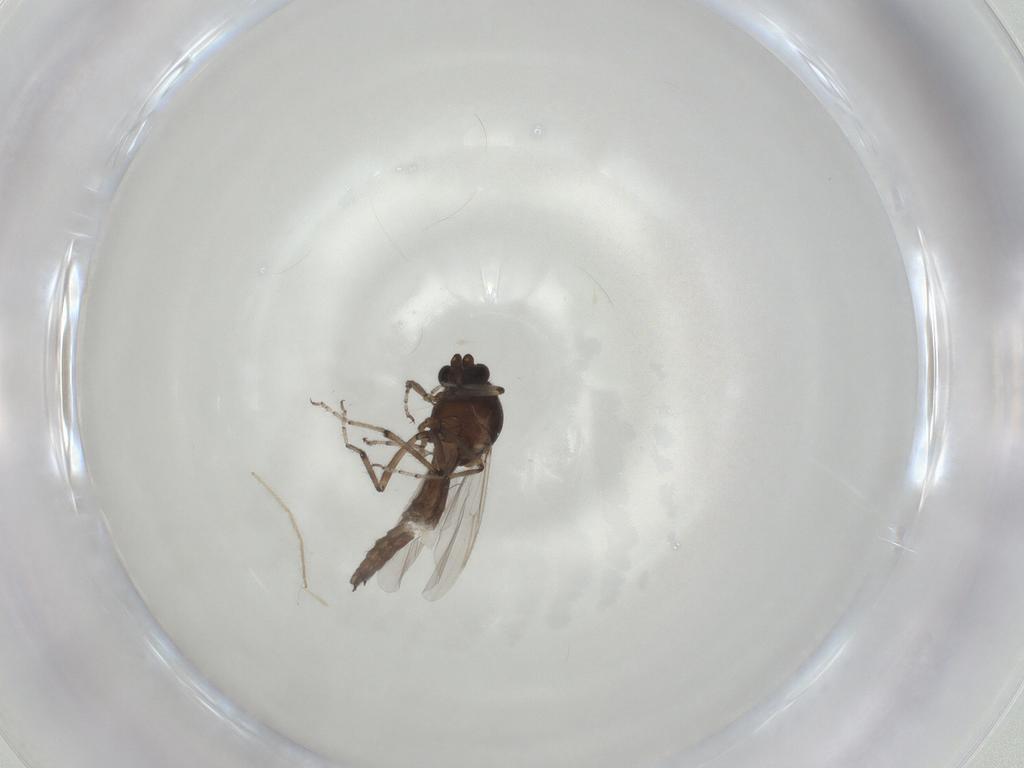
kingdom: Animalia
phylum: Arthropoda
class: Insecta
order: Diptera
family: Ceratopogonidae
